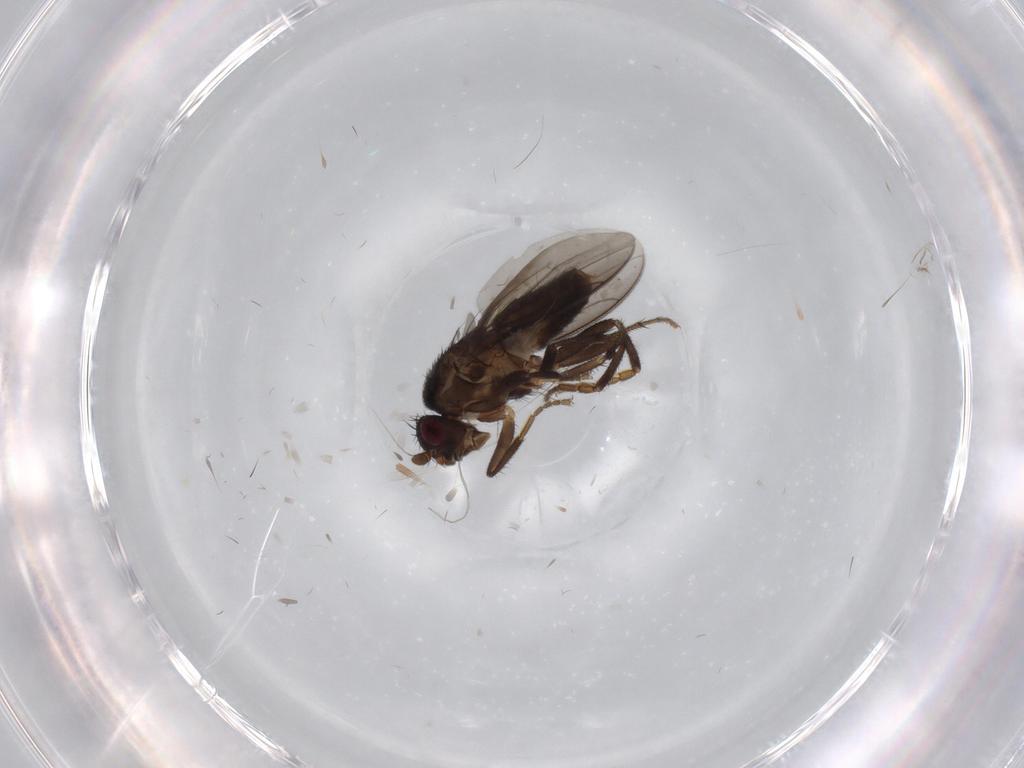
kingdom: Animalia
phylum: Arthropoda
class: Insecta
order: Diptera
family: Sphaeroceridae
